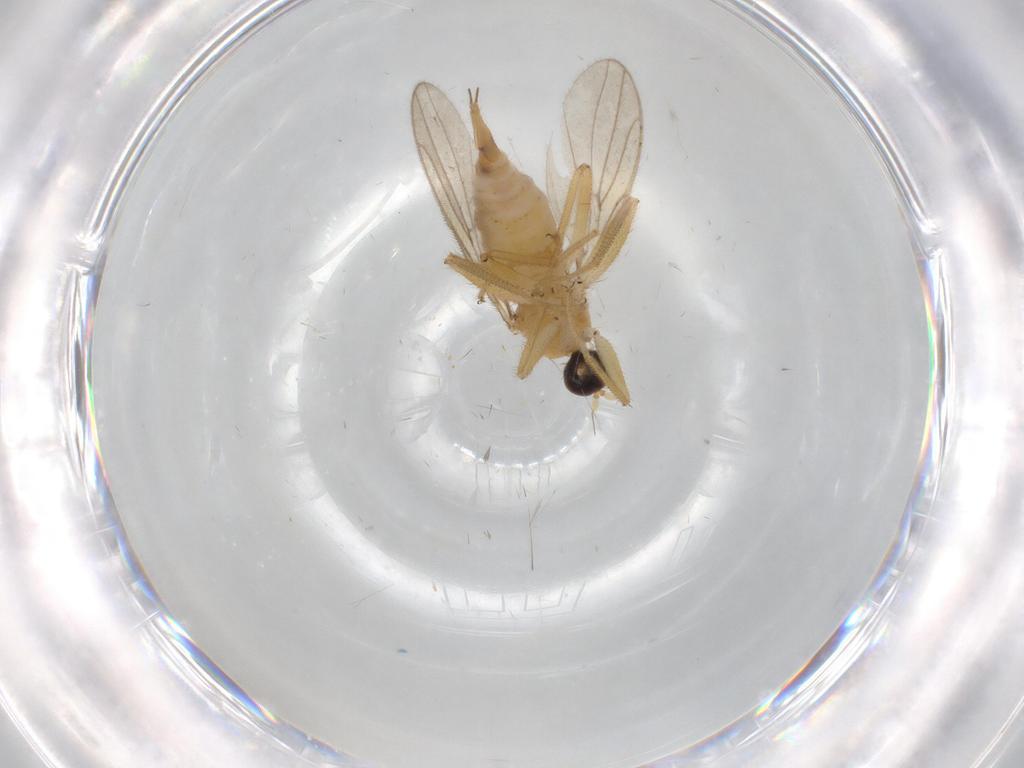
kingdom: Animalia
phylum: Arthropoda
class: Insecta
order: Diptera
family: Hybotidae
